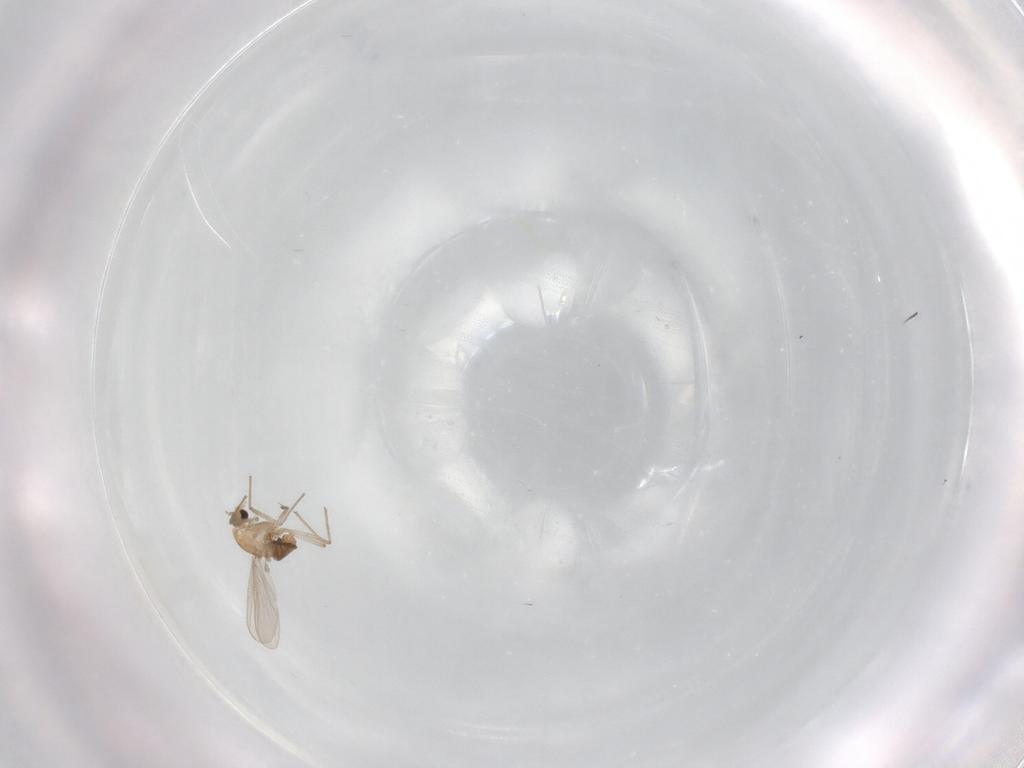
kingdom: Animalia
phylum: Arthropoda
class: Insecta
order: Diptera
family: Chironomidae
